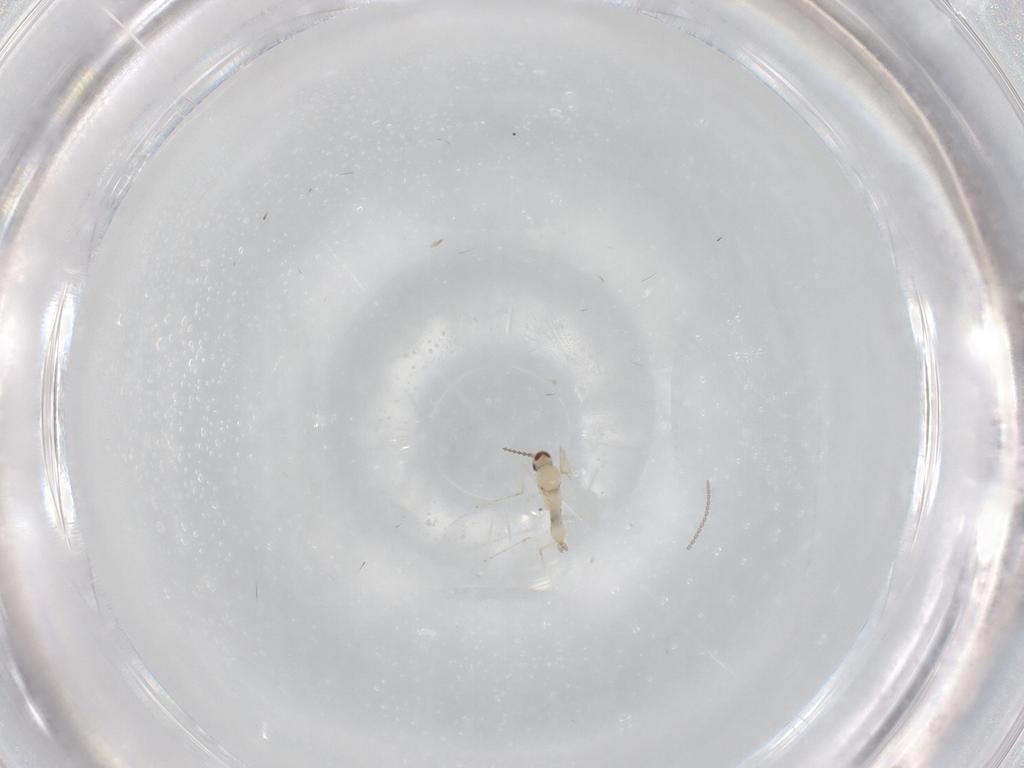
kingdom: Animalia
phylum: Arthropoda
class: Insecta
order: Diptera
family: Cecidomyiidae
